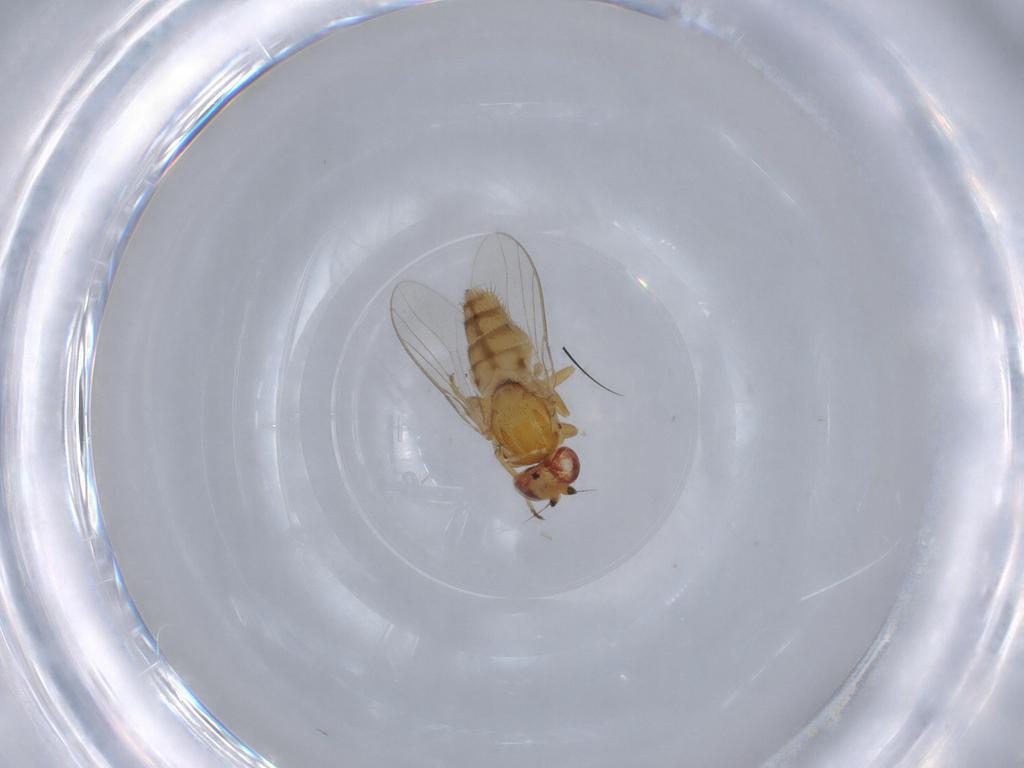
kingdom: Animalia
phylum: Arthropoda
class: Insecta
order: Diptera
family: Chloropidae
